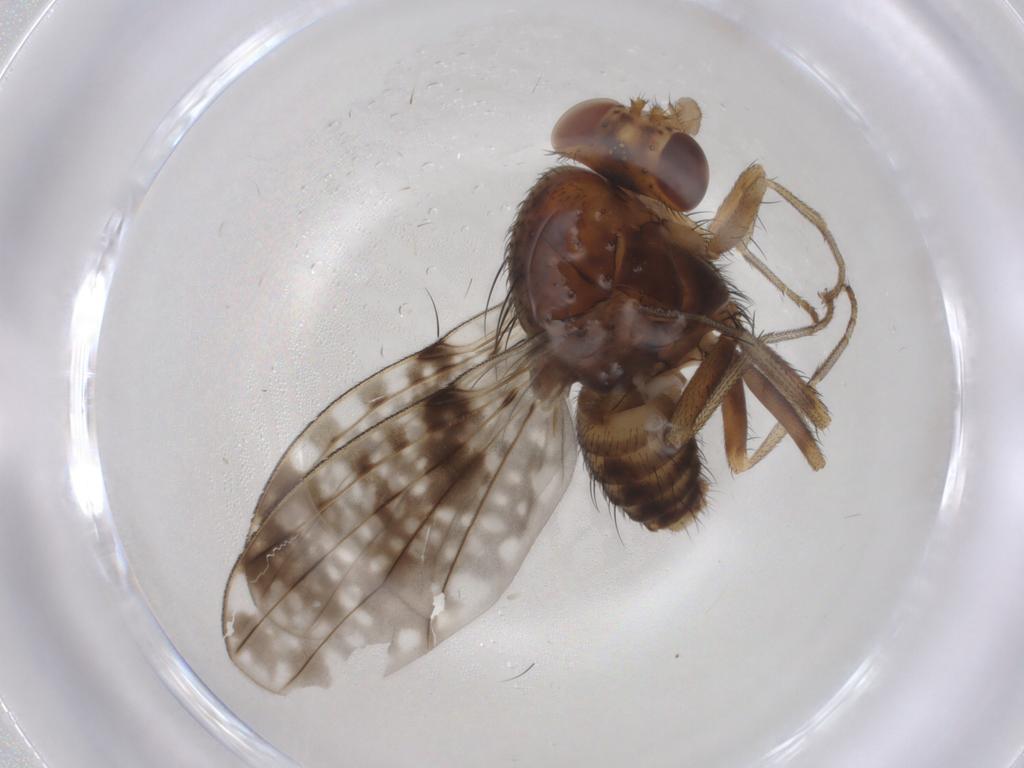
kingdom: Animalia
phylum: Arthropoda
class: Insecta
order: Diptera
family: Lauxaniidae
